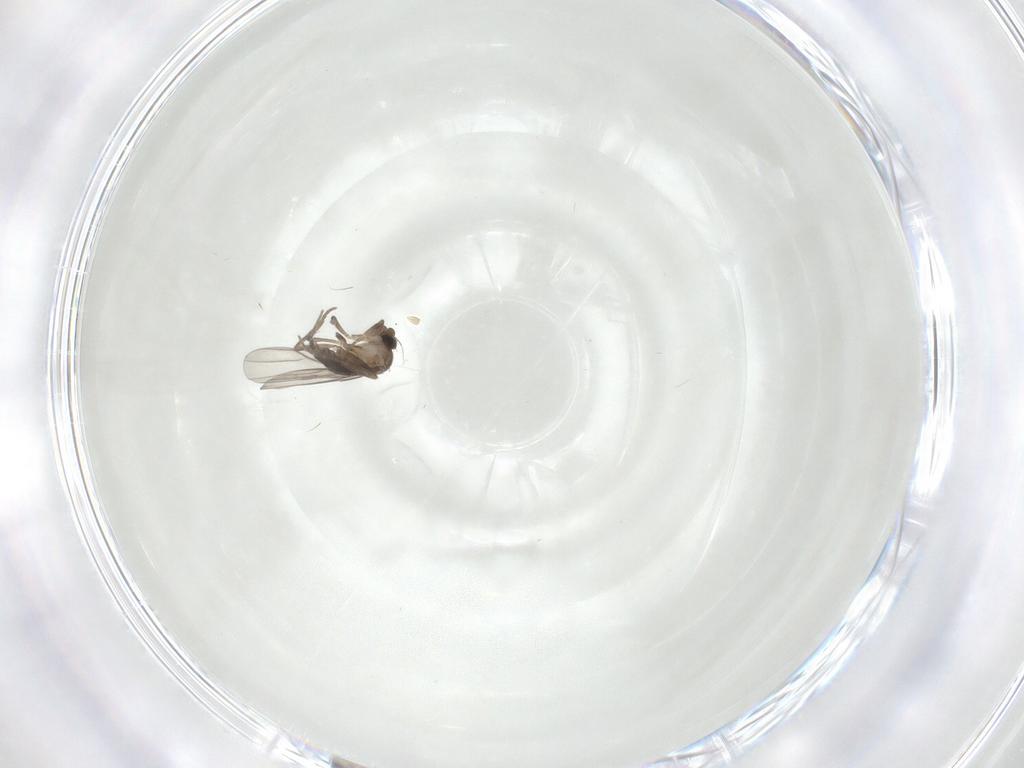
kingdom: Animalia
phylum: Arthropoda
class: Insecta
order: Diptera
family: Phoridae
